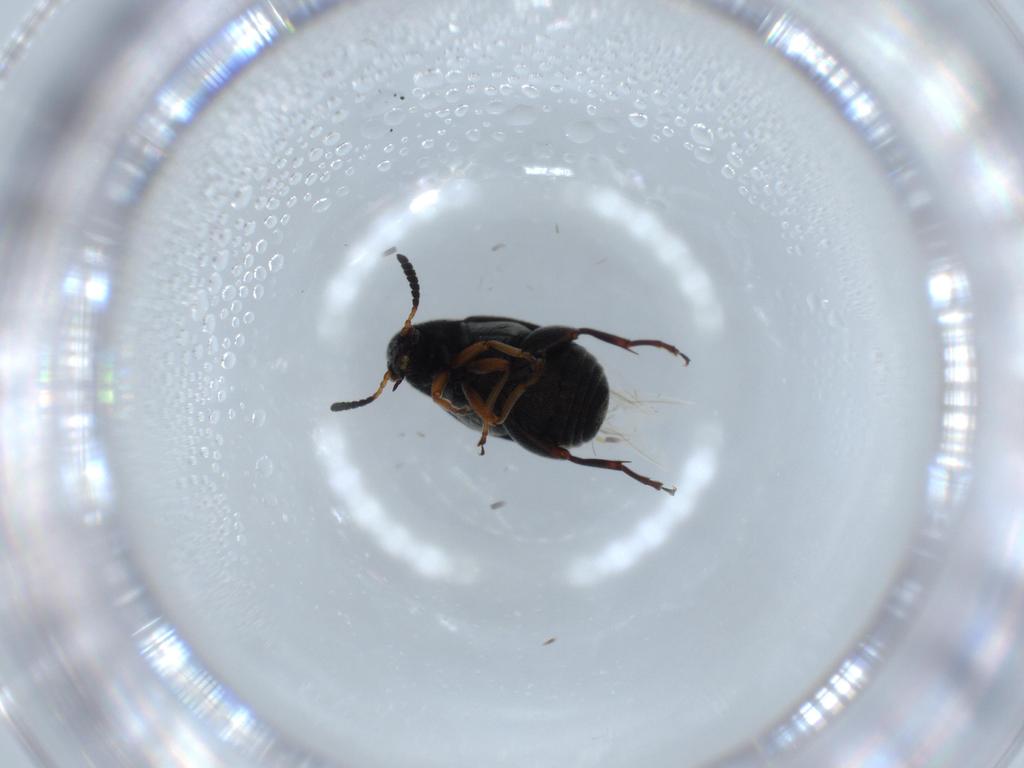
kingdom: Animalia
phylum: Arthropoda
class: Insecta
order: Coleoptera
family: Chrysomelidae
